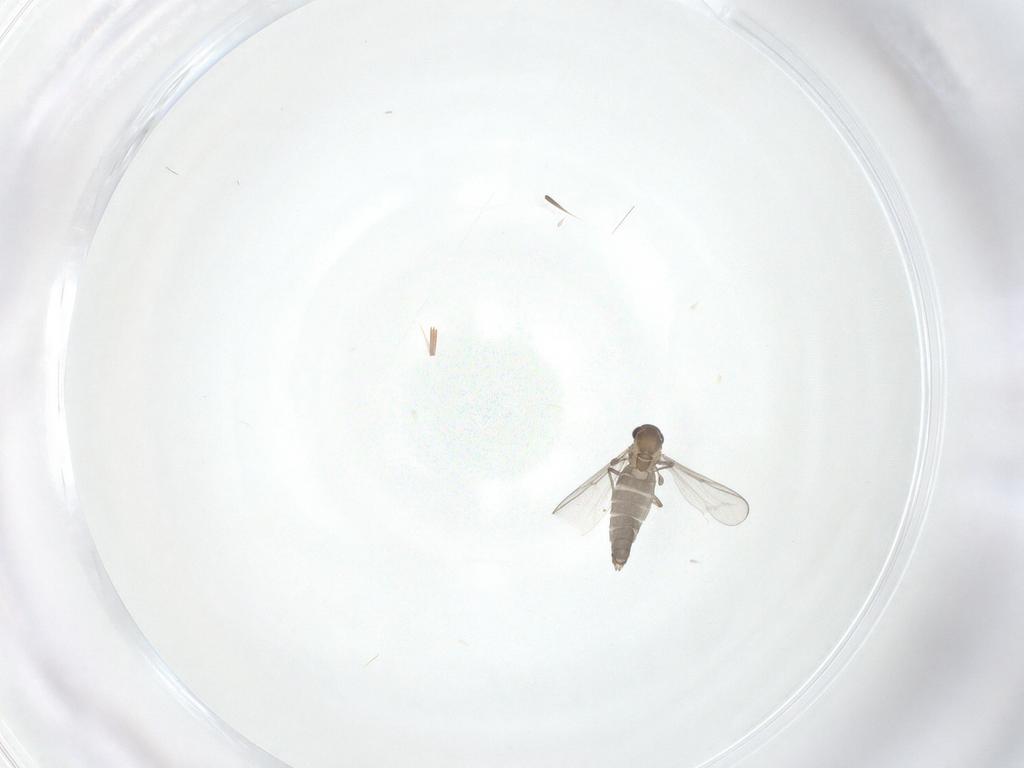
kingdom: Animalia
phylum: Arthropoda
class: Insecta
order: Diptera
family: Chironomidae
